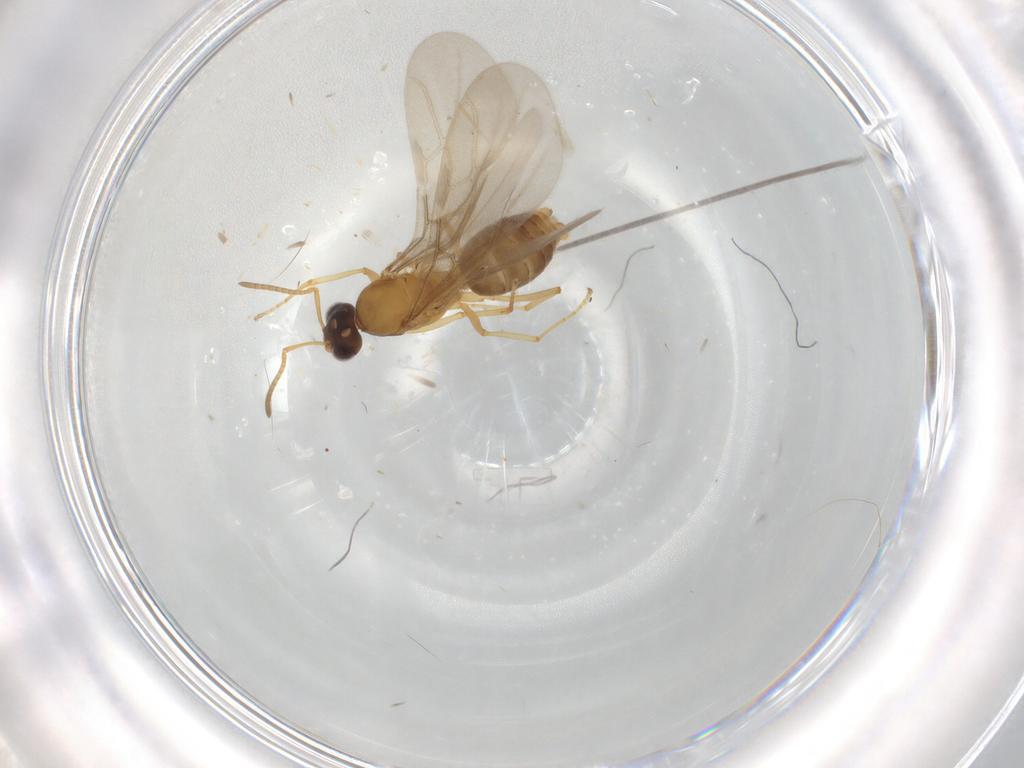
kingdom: Animalia
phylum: Arthropoda
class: Insecta
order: Hymenoptera
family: Formicidae
